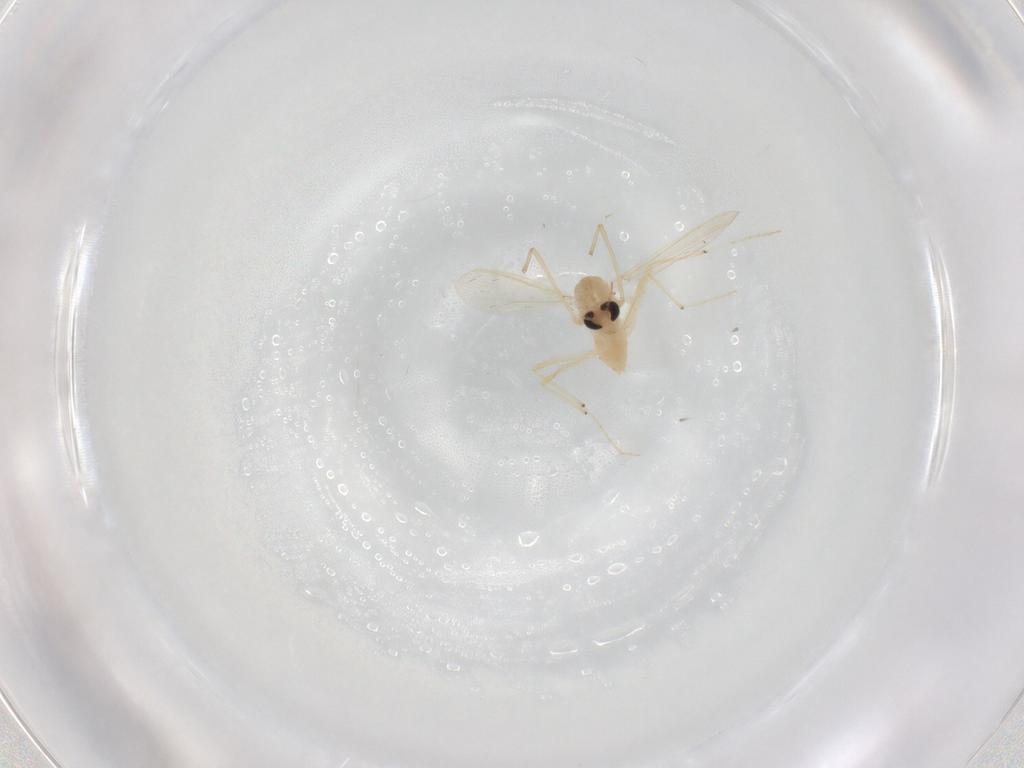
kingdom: Animalia
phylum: Arthropoda
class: Insecta
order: Diptera
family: Chironomidae
